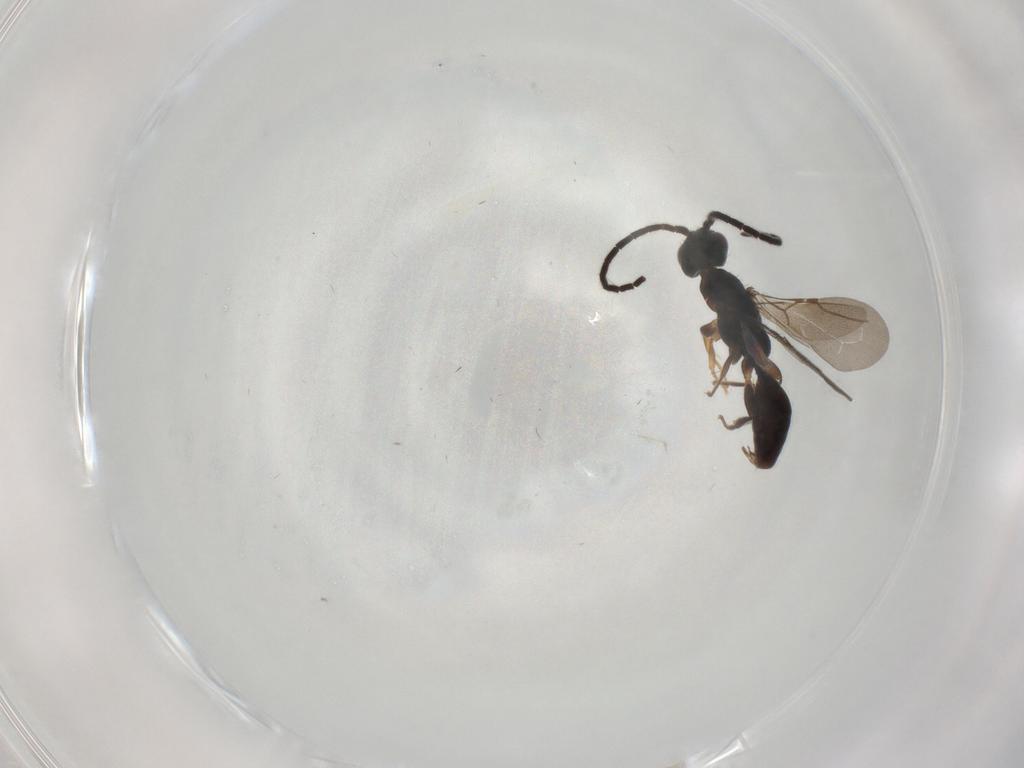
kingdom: Animalia
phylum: Arthropoda
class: Insecta
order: Hymenoptera
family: Bethylidae
